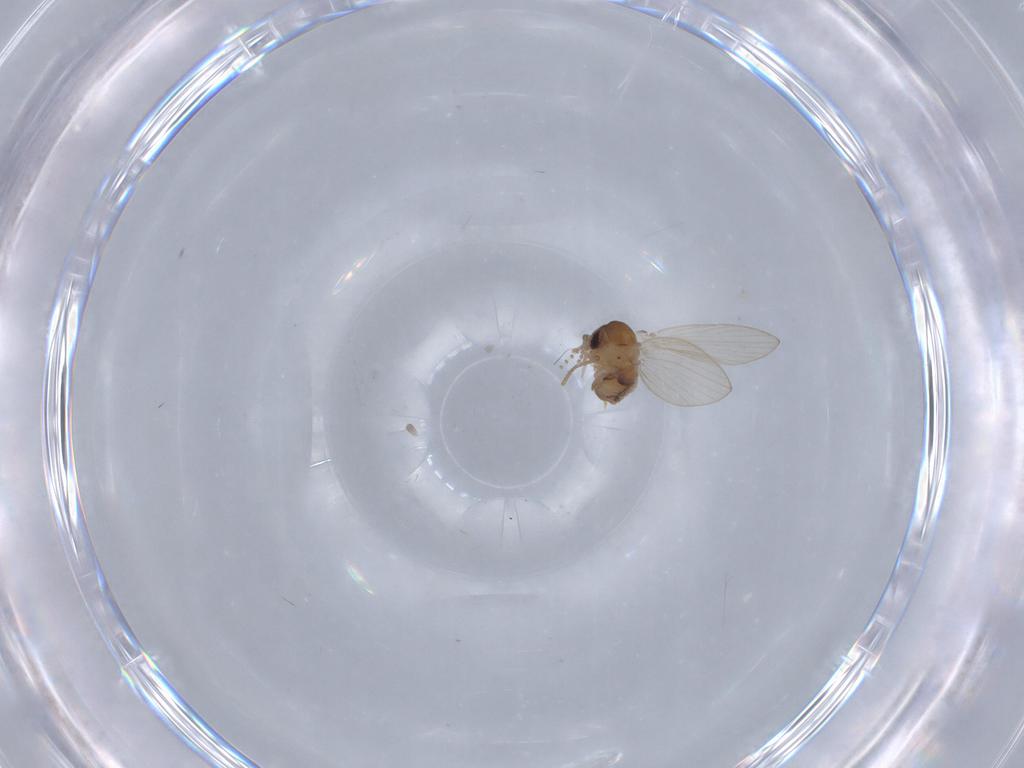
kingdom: Animalia
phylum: Arthropoda
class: Insecta
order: Diptera
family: Psychodidae
